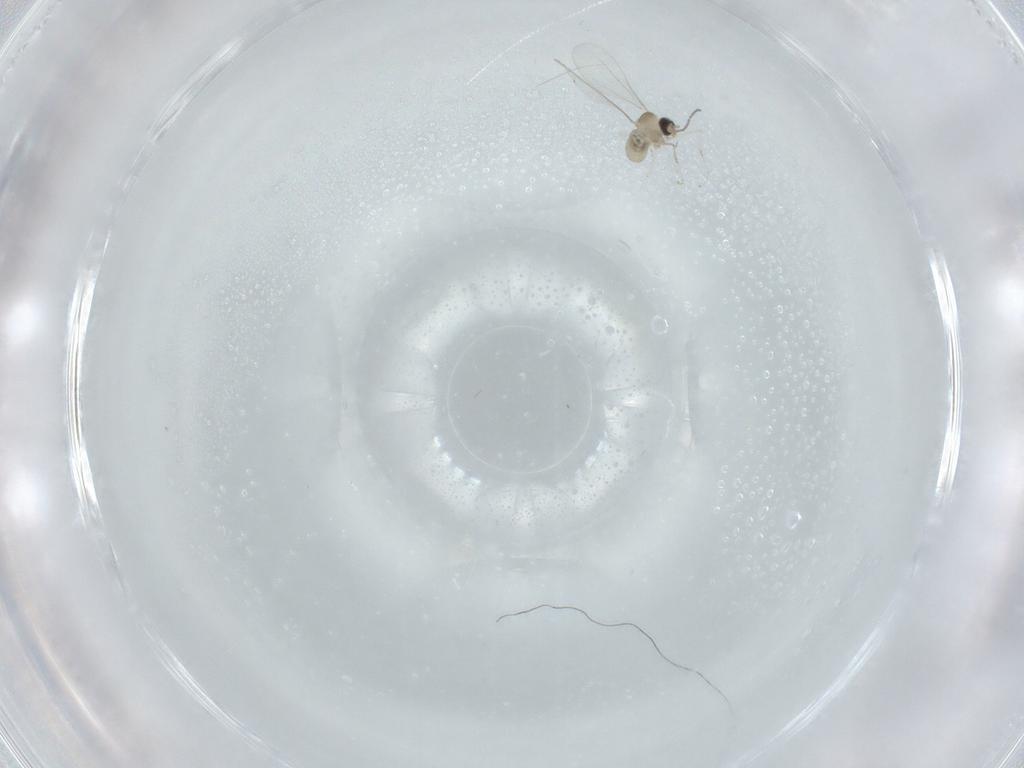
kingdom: Animalia
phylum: Arthropoda
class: Insecta
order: Diptera
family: Cecidomyiidae
